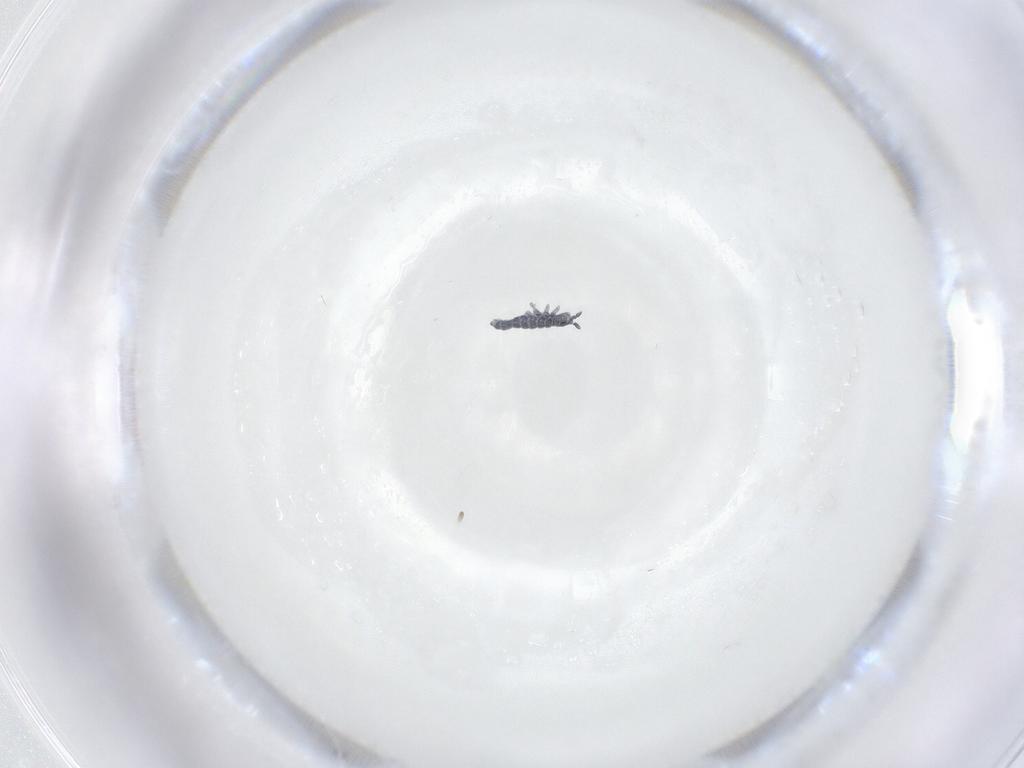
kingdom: Animalia
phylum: Arthropoda
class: Collembola
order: Poduromorpha
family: Hypogastruridae
